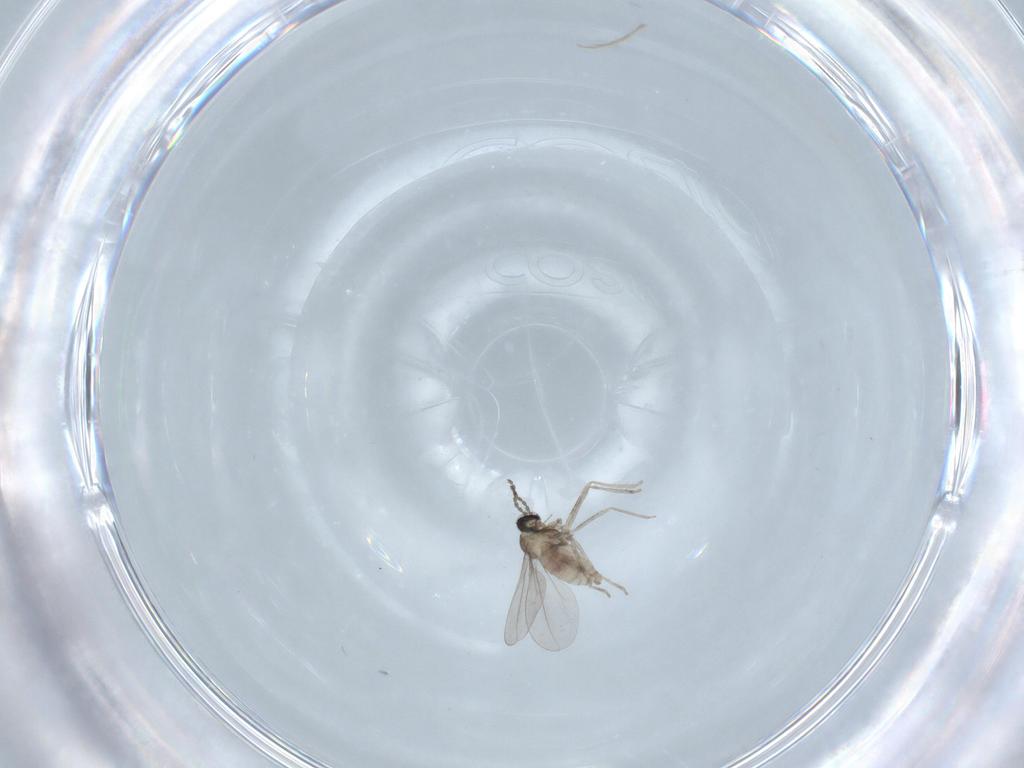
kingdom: Animalia
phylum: Arthropoda
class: Insecta
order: Diptera
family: Cecidomyiidae
